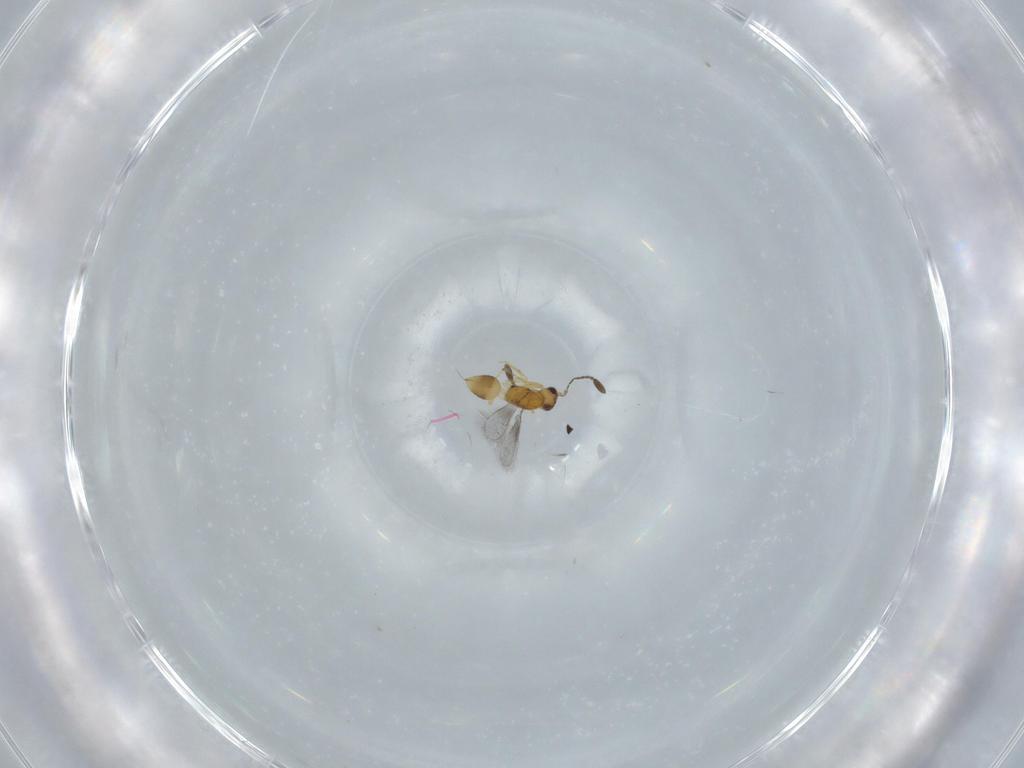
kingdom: Animalia
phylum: Arthropoda
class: Insecta
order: Hymenoptera
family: Mymaridae
